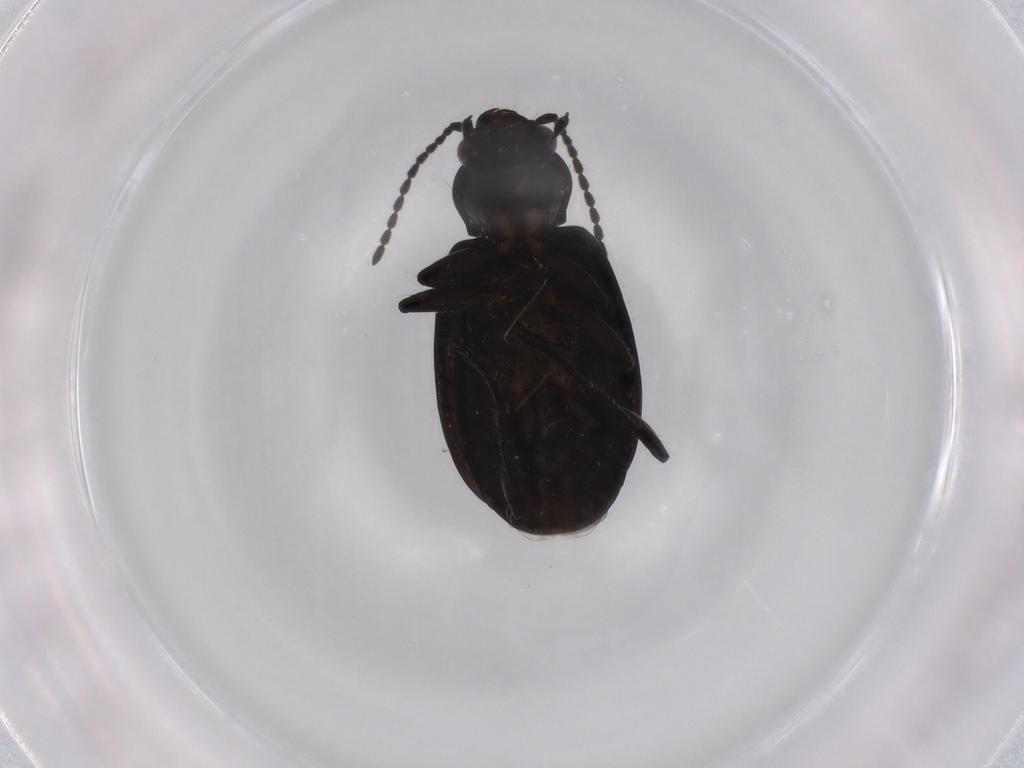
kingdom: Animalia
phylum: Arthropoda
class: Insecta
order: Coleoptera
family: Carabidae
